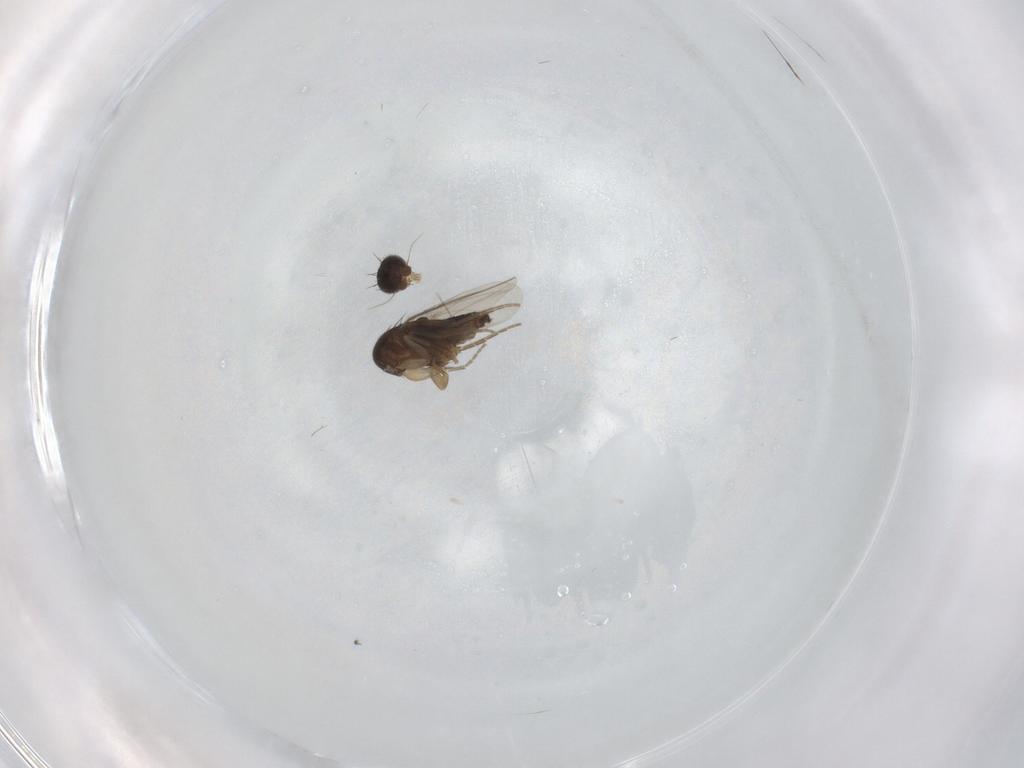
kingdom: Animalia
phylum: Arthropoda
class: Insecta
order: Diptera
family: Phoridae
